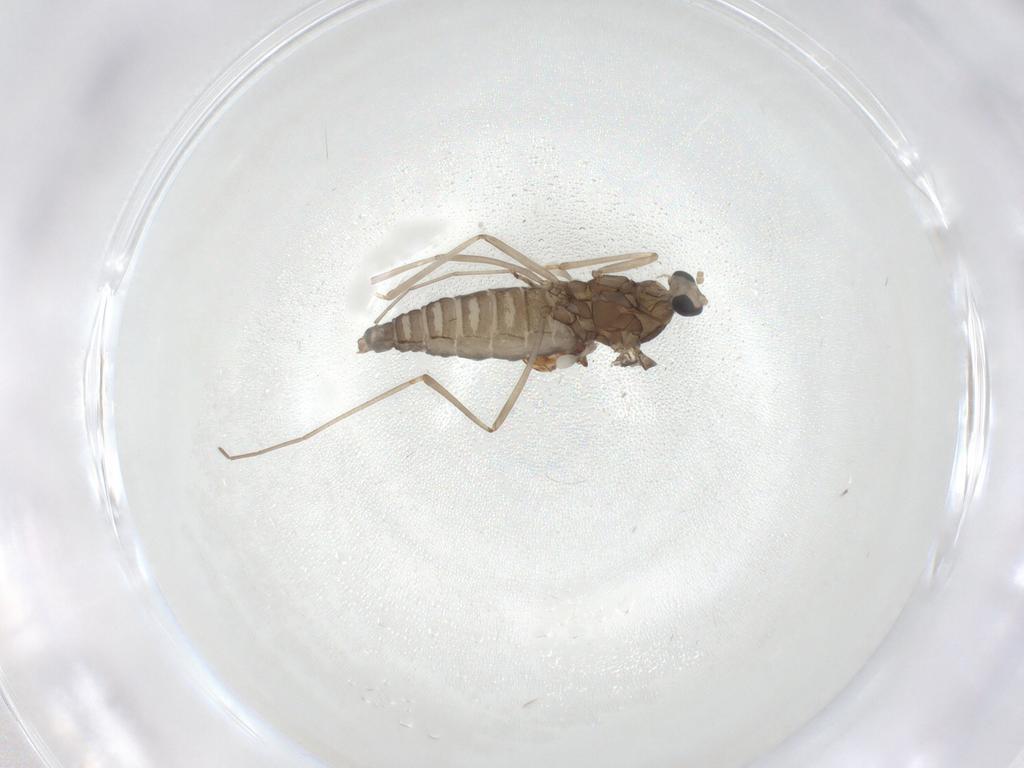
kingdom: Animalia
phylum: Arthropoda
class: Insecta
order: Diptera
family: Cecidomyiidae
